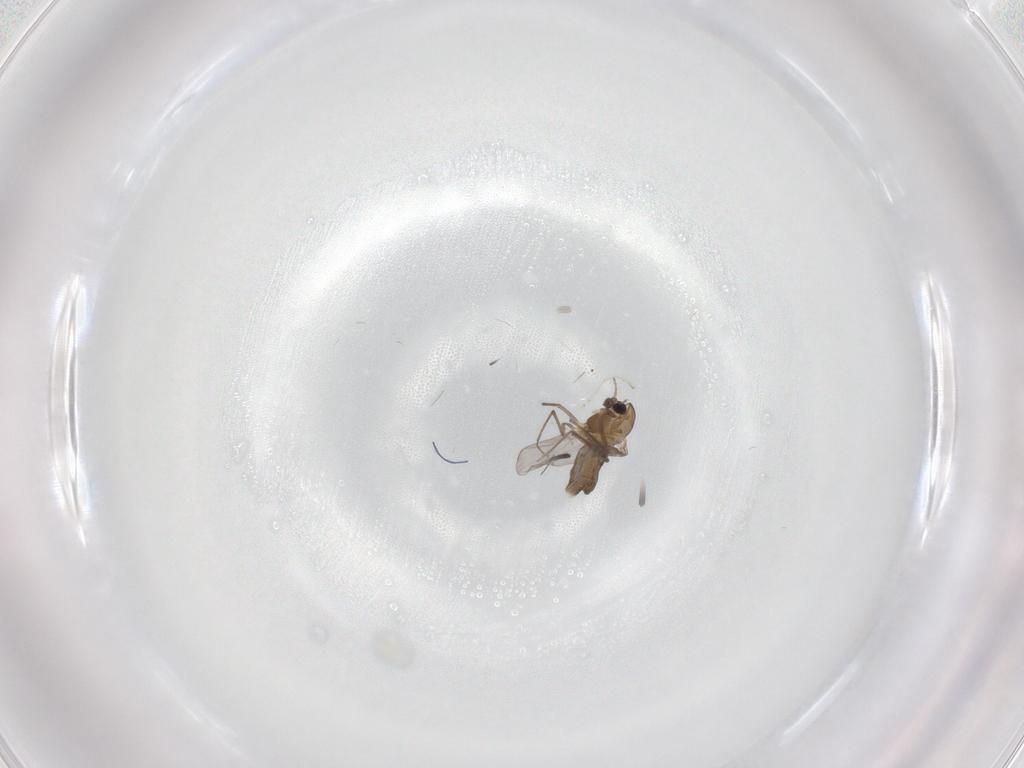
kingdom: Animalia
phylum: Arthropoda
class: Insecta
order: Diptera
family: Chironomidae
